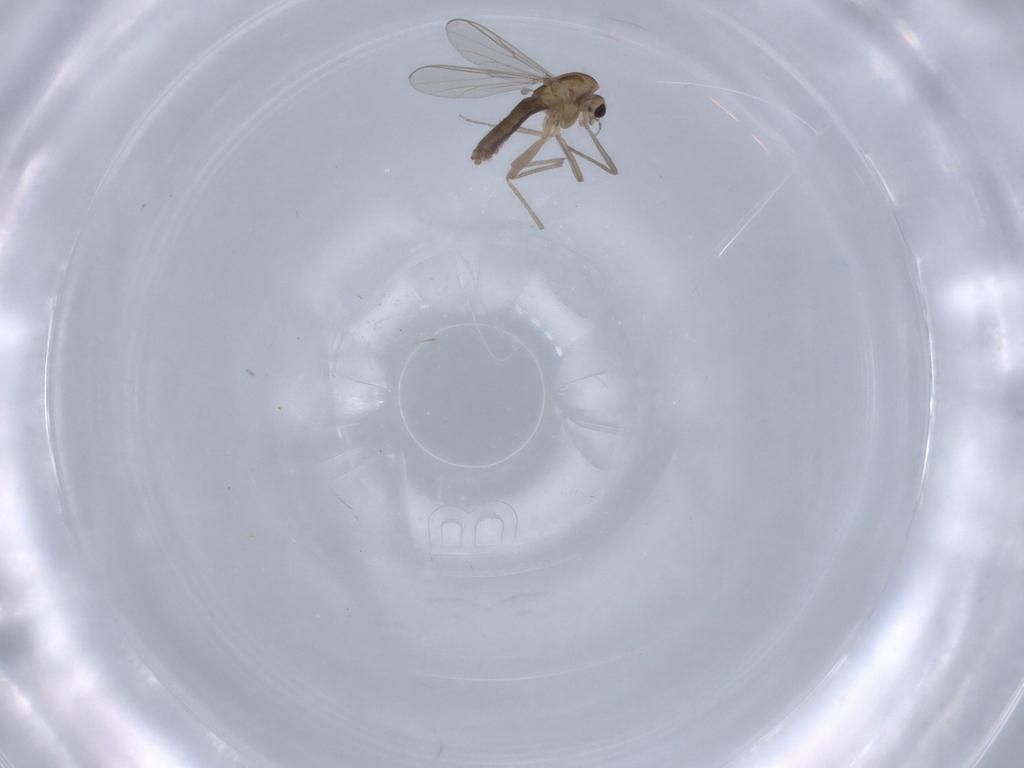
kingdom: Animalia
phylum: Arthropoda
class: Insecta
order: Diptera
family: Chironomidae
